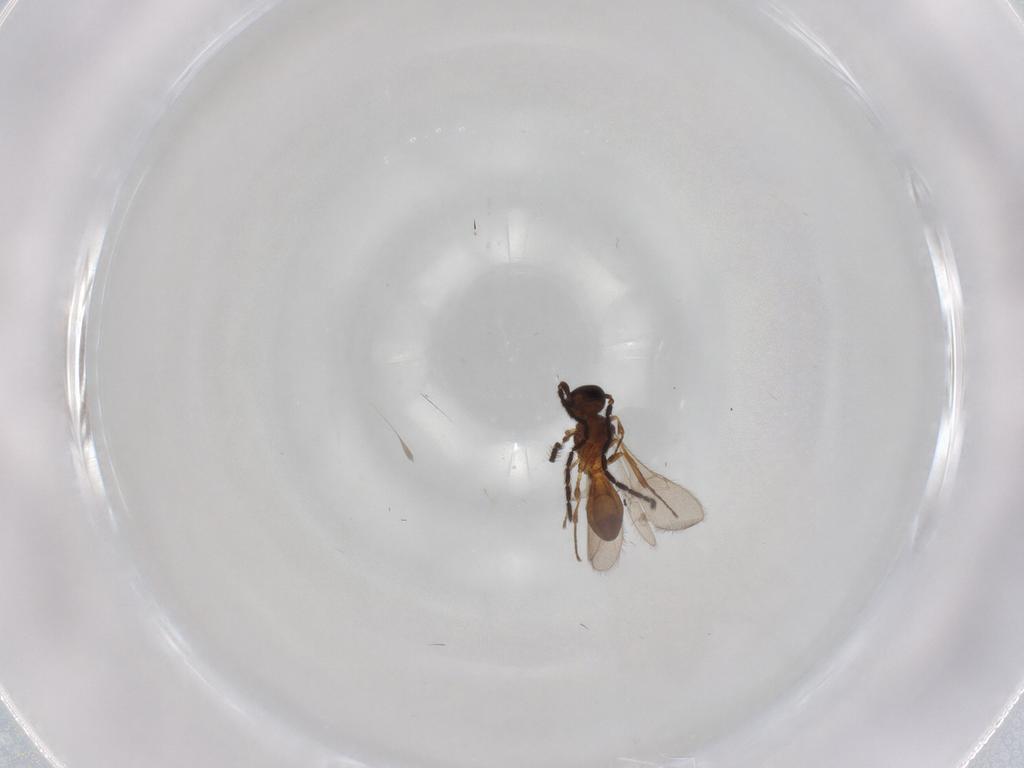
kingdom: Animalia
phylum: Arthropoda
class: Insecta
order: Hymenoptera
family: Scelionidae
